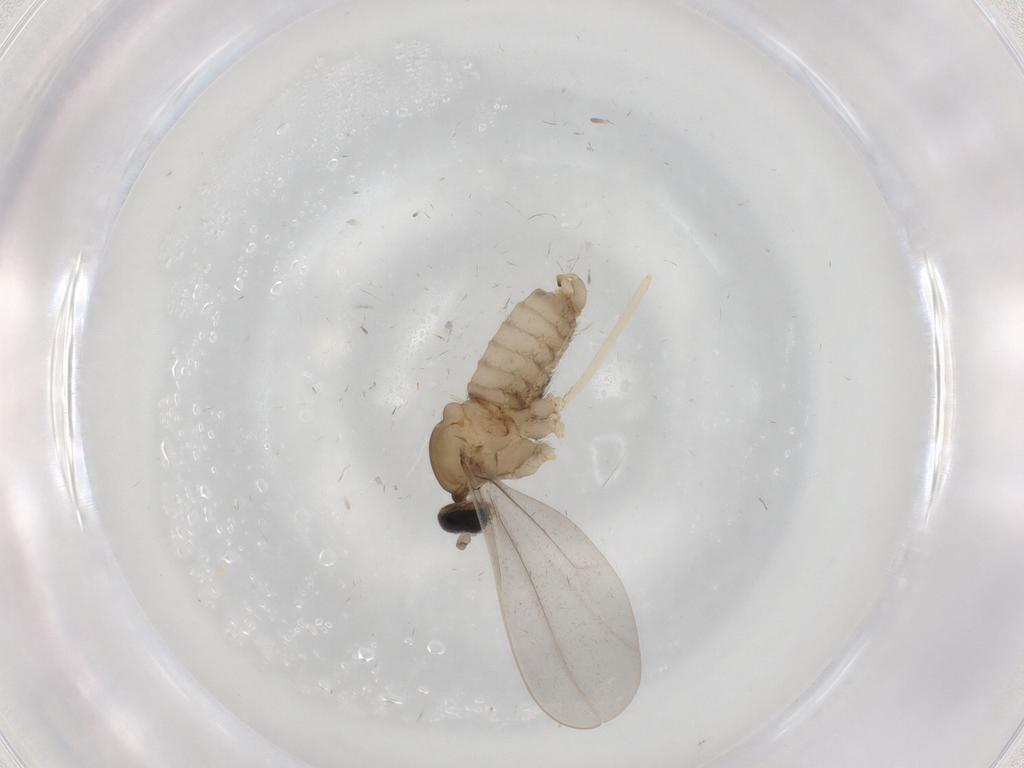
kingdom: Animalia
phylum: Arthropoda
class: Insecta
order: Diptera
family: Cecidomyiidae
